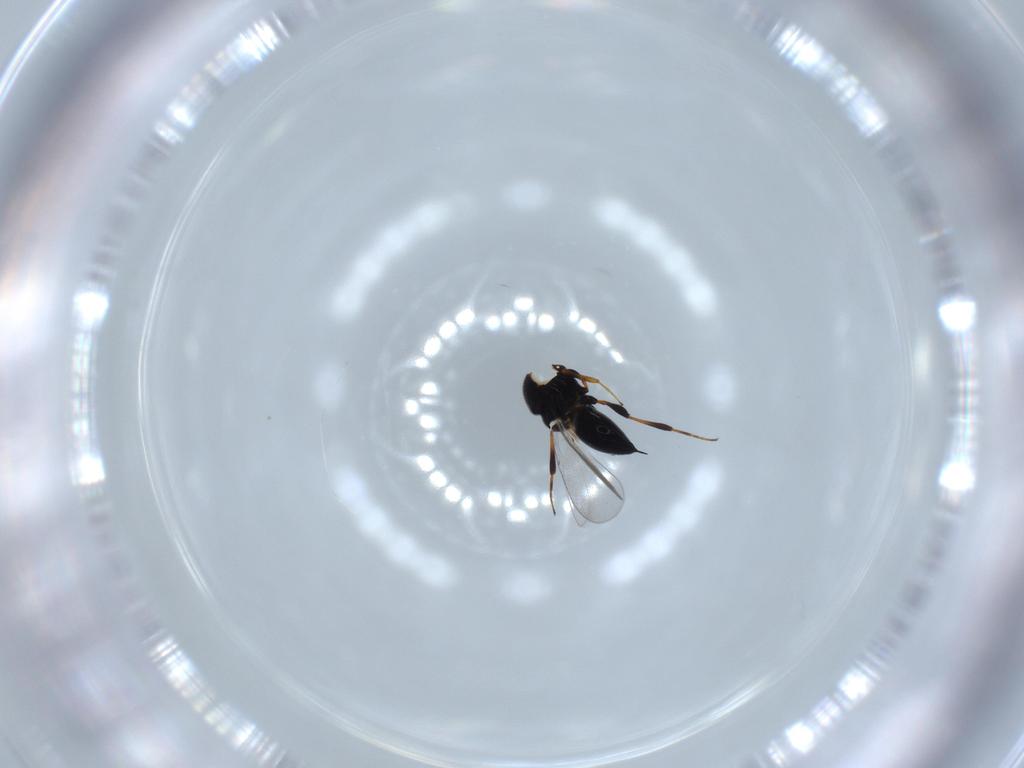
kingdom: Animalia
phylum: Arthropoda
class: Insecta
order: Hymenoptera
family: Platygastridae
